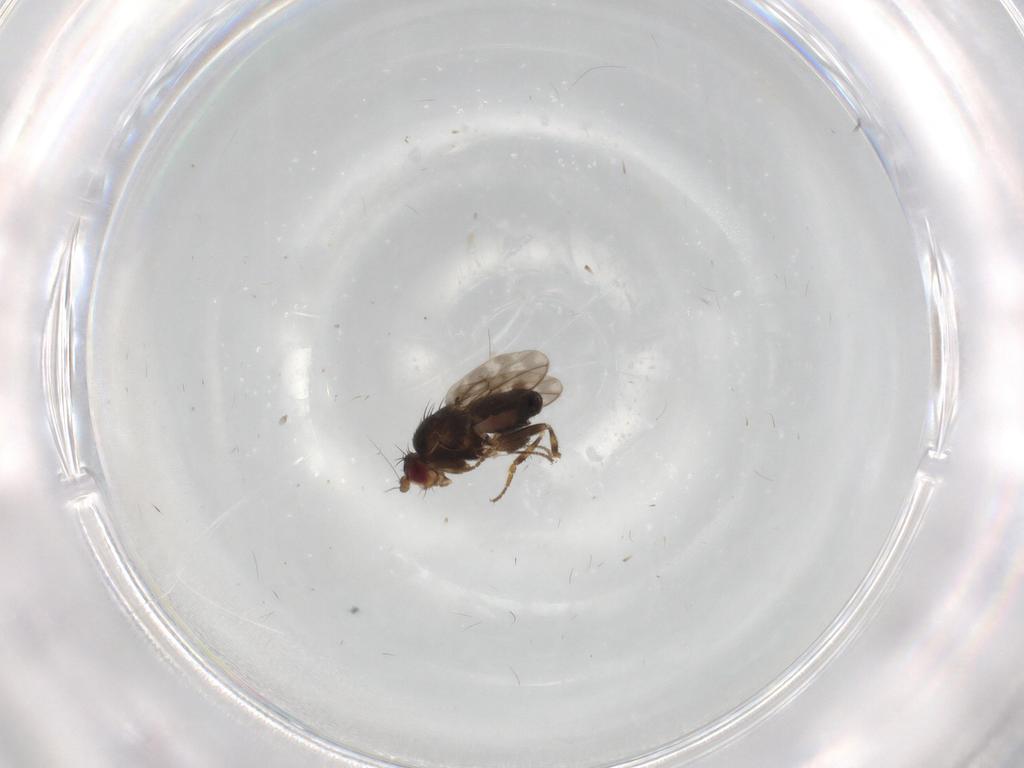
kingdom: Animalia
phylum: Arthropoda
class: Insecta
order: Diptera
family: Sphaeroceridae
